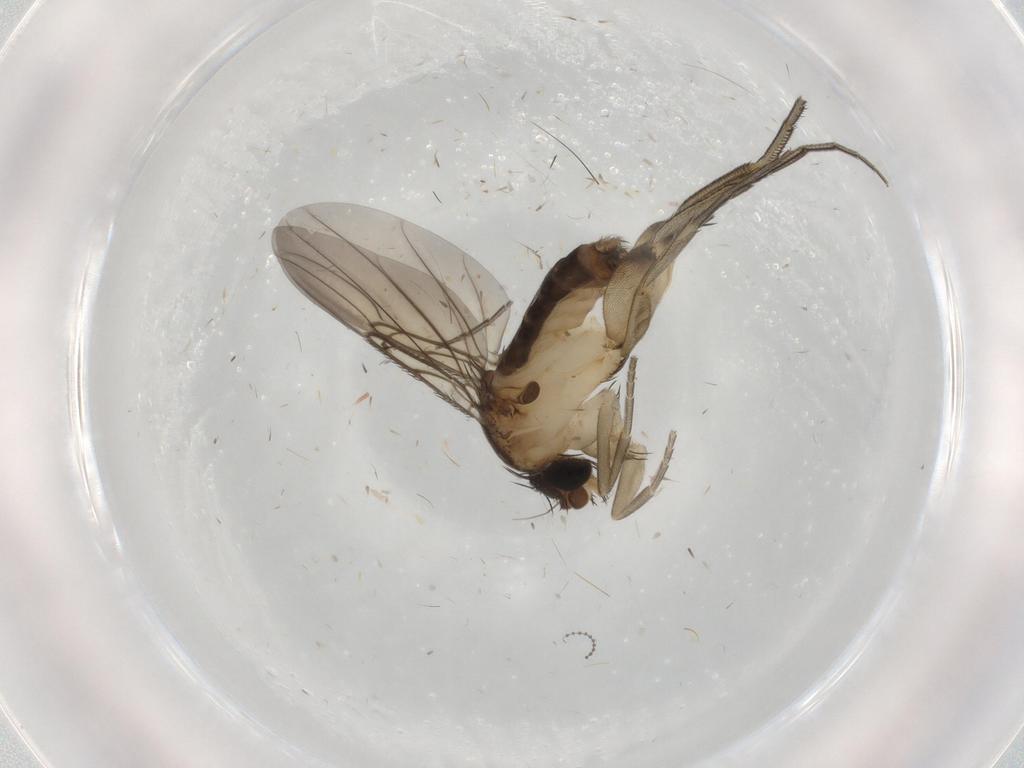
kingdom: Animalia
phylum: Arthropoda
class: Insecta
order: Diptera
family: Phoridae
